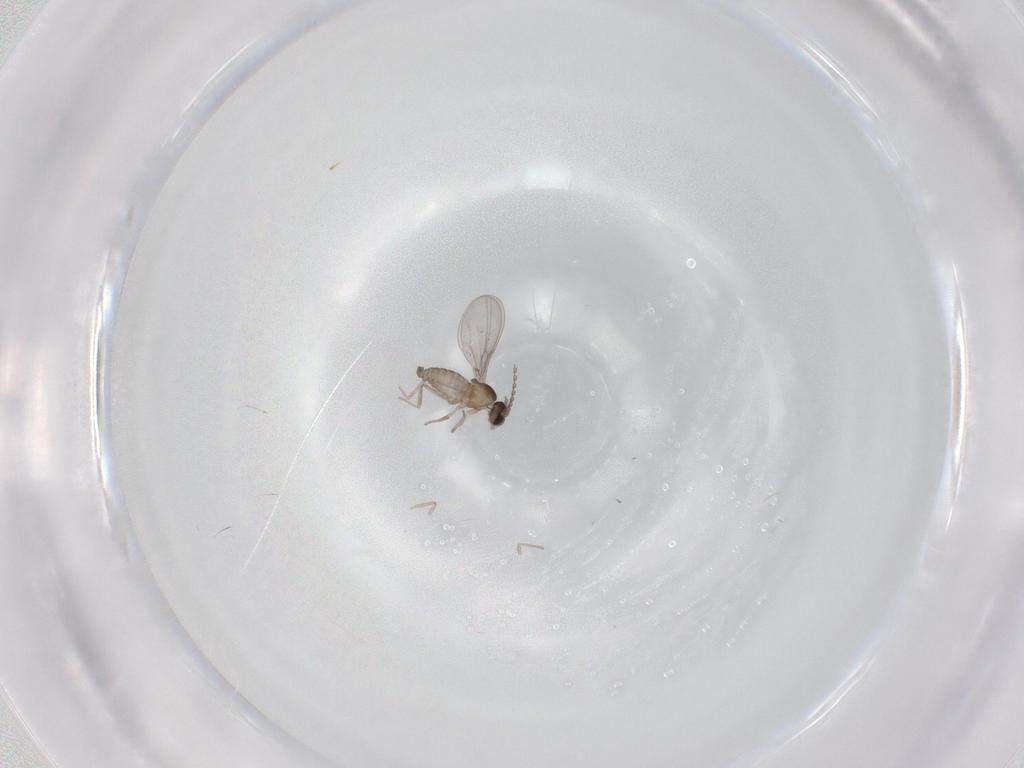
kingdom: Animalia
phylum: Arthropoda
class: Insecta
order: Diptera
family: Cecidomyiidae
